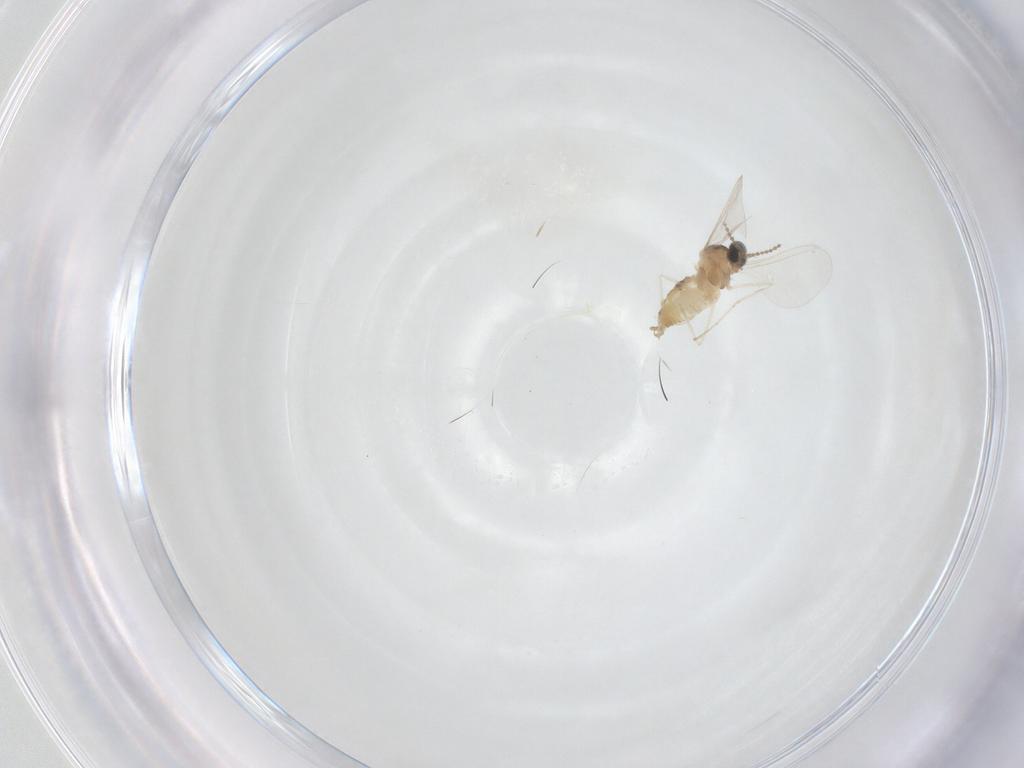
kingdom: Animalia
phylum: Arthropoda
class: Insecta
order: Diptera
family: Cecidomyiidae
